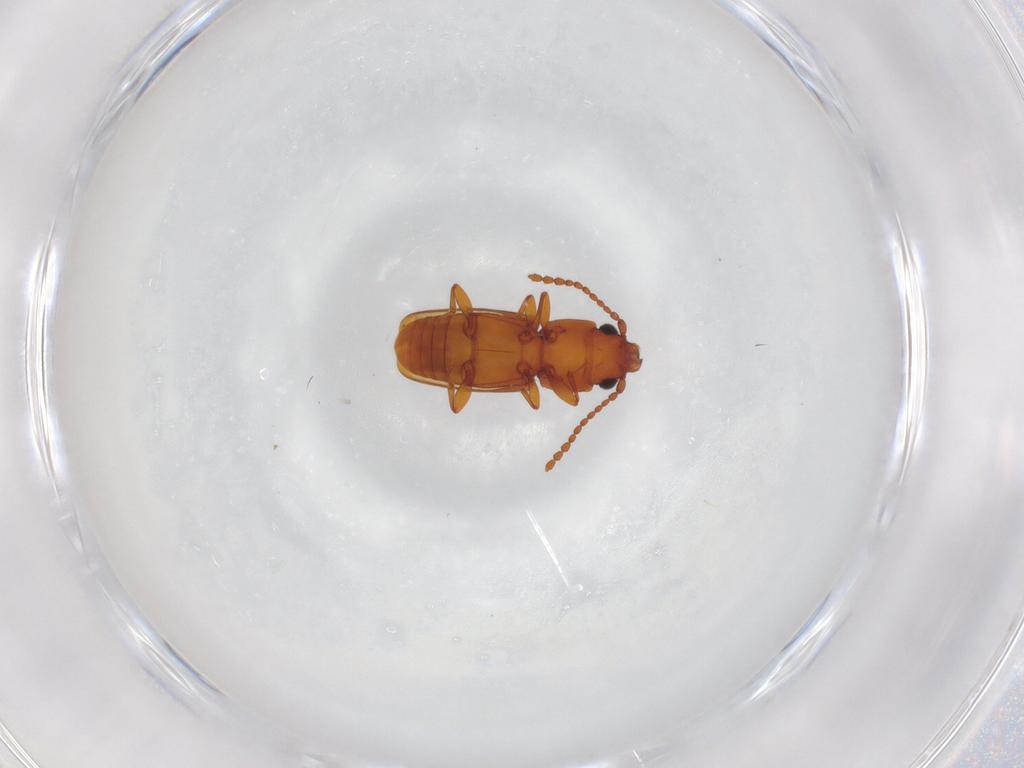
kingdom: Animalia
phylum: Arthropoda
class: Insecta
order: Coleoptera
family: Laemophloeidae
